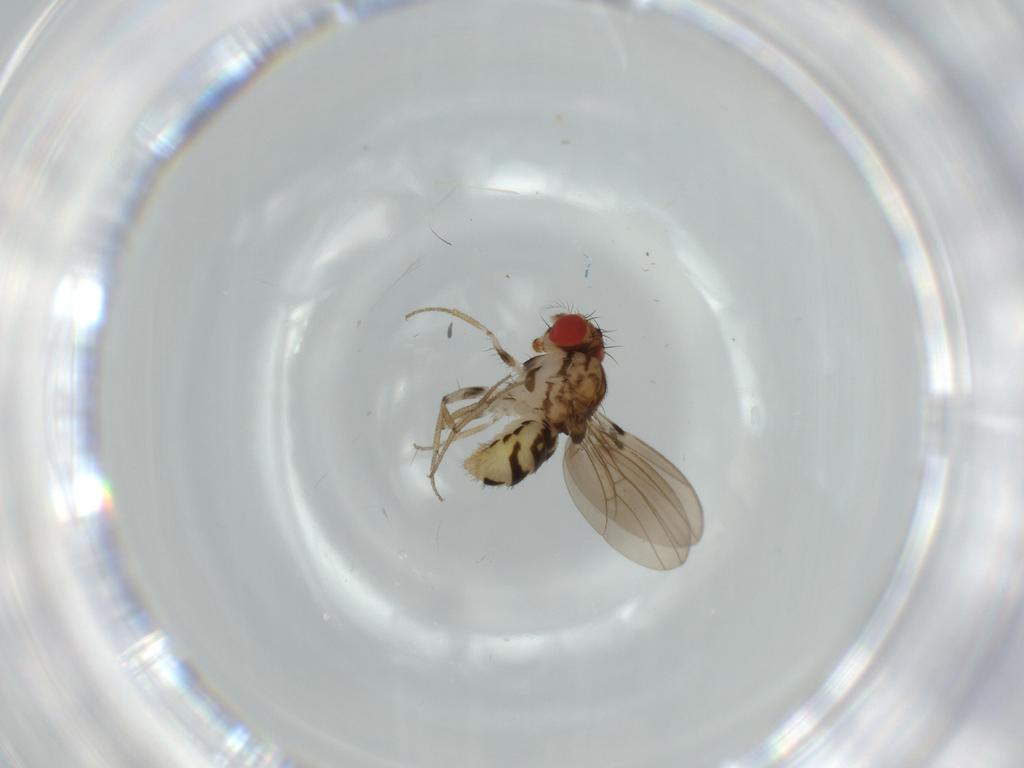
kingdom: Animalia
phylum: Arthropoda
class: Insecta
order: Diptera
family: Drosophilidae
